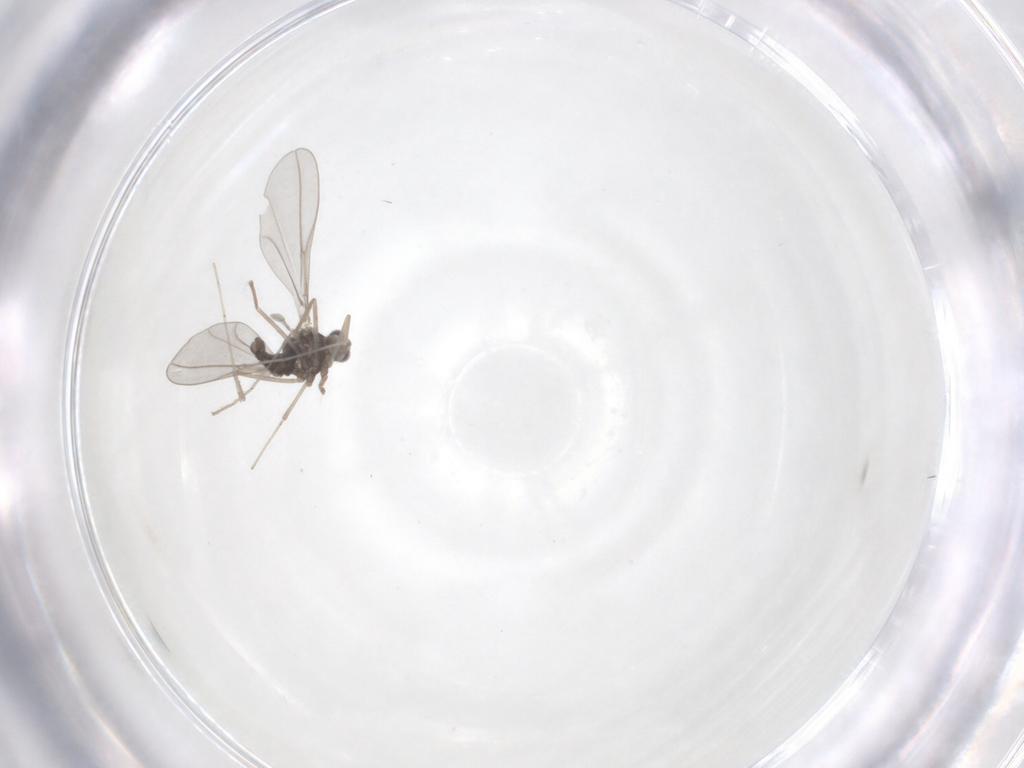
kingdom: Animalia
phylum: Arthropoda
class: Insecta
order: Diptera
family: Cecidomyiidae
